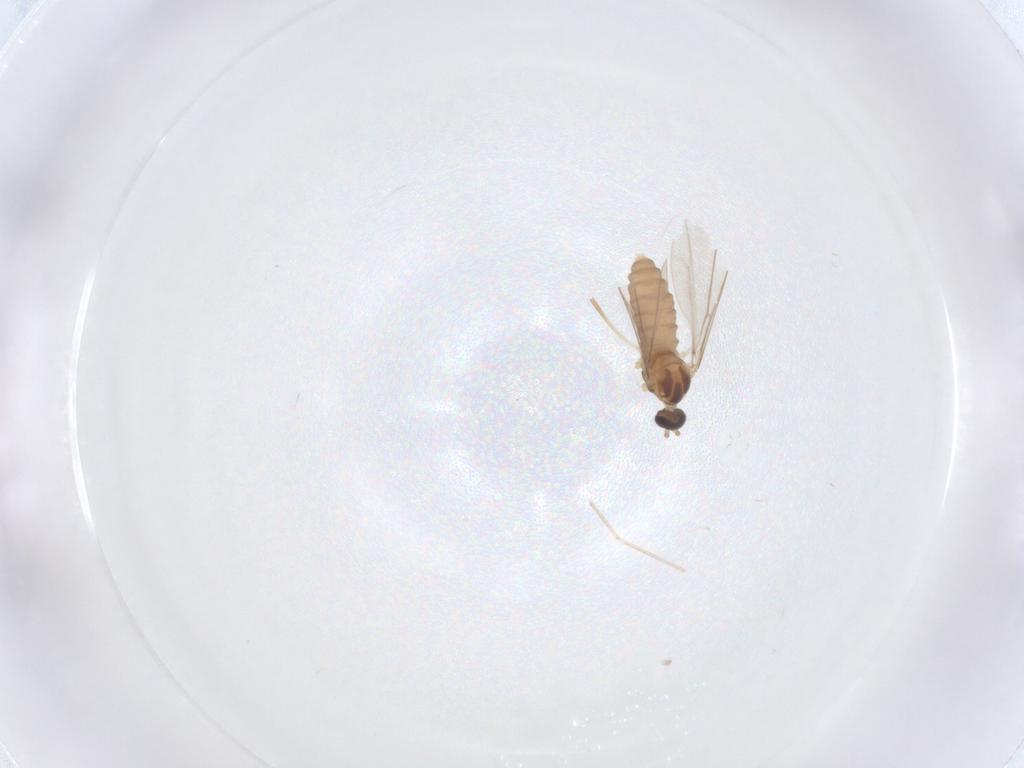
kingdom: Animalia
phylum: Arthropoda
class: Insecta
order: Diptera
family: Cecidomyiidae
